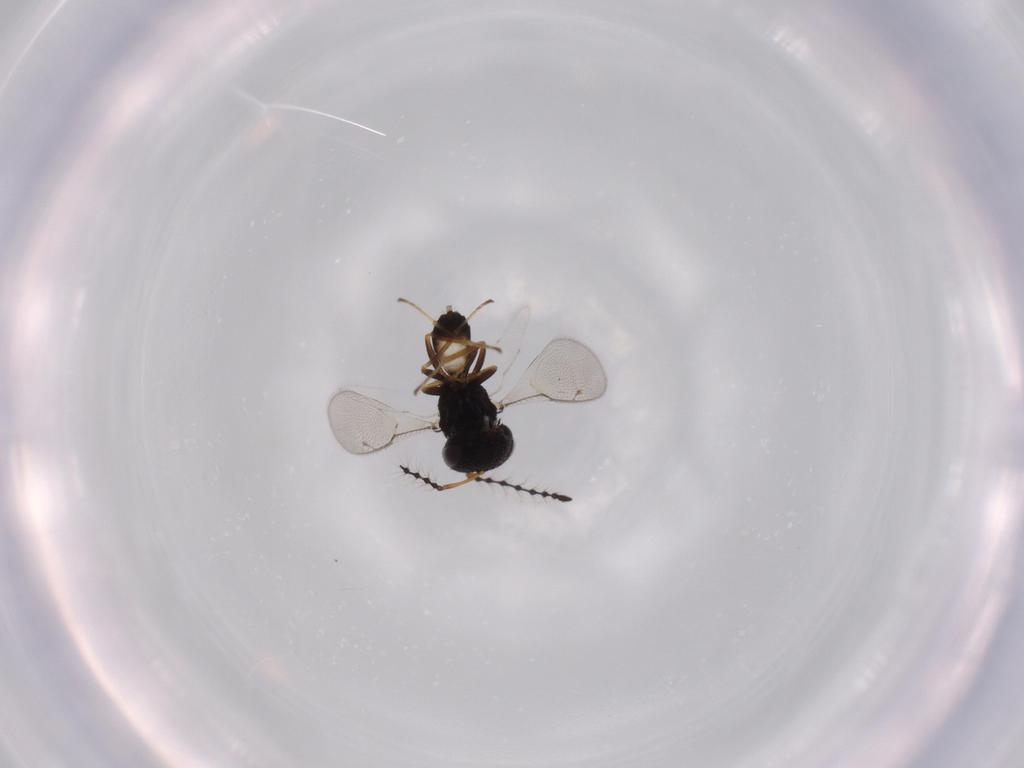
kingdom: Animalia
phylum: Arthropoda
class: Insecta
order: Hymenoptera
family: Pteromalidae
